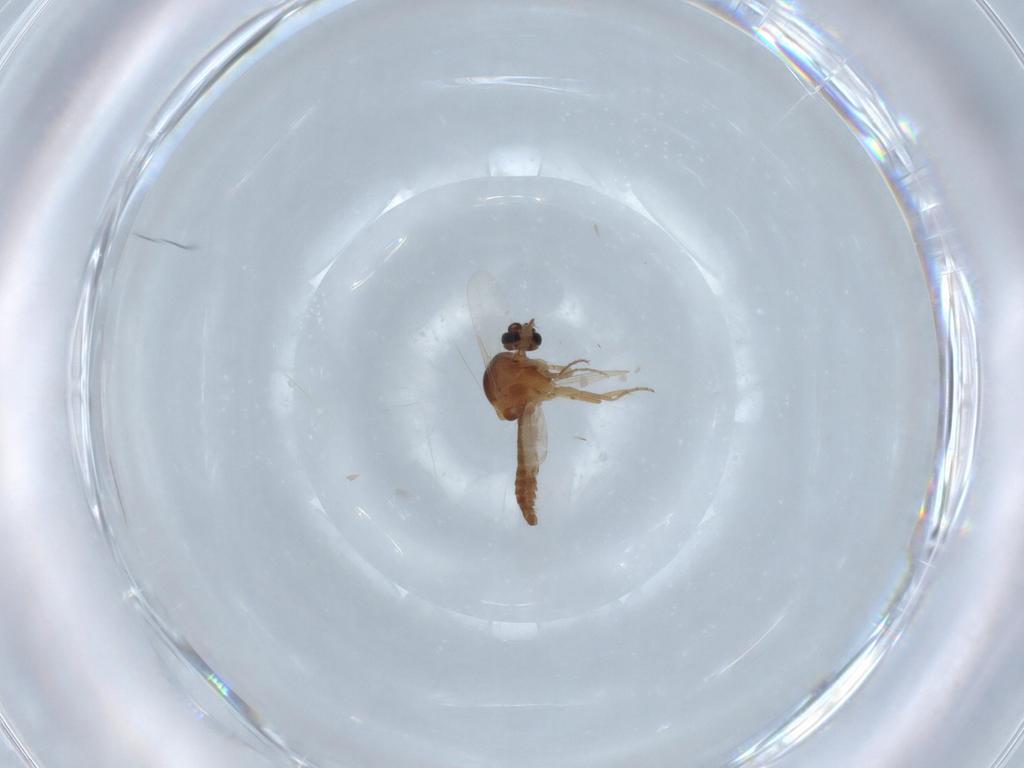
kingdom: Animalia
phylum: Arthropoda
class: Insecta
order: Diptera
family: Ceratopogonidae
